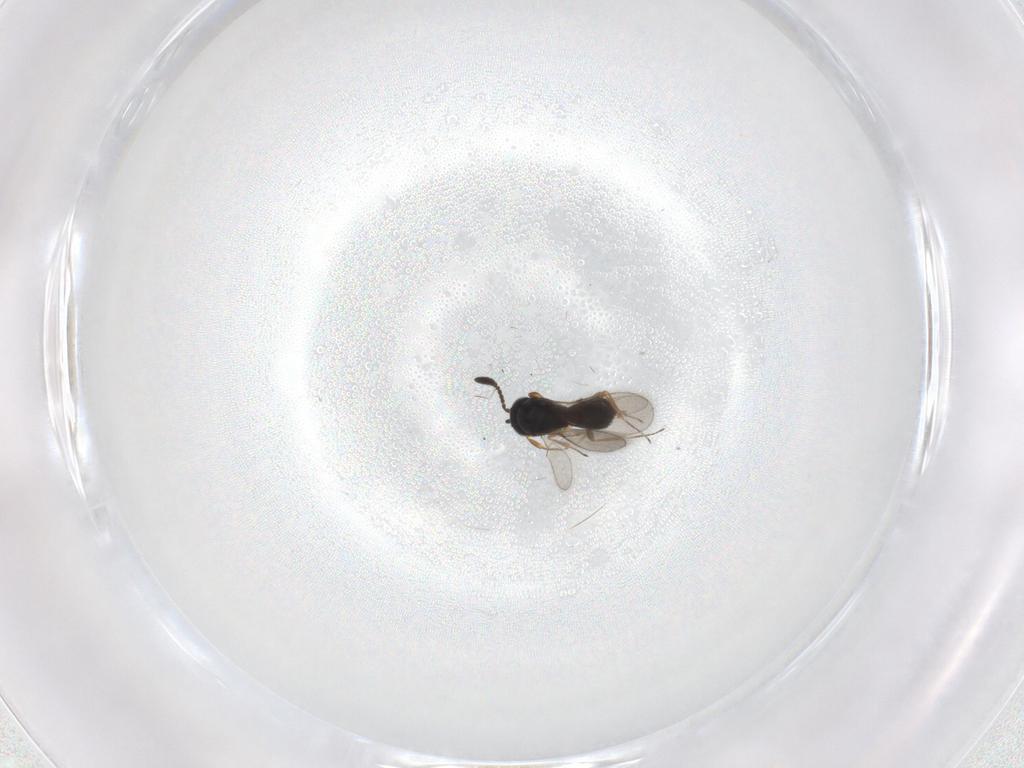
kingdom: Animalia
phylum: Arthropoda
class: Insecta
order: Hymenoptera
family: Scelionidae
